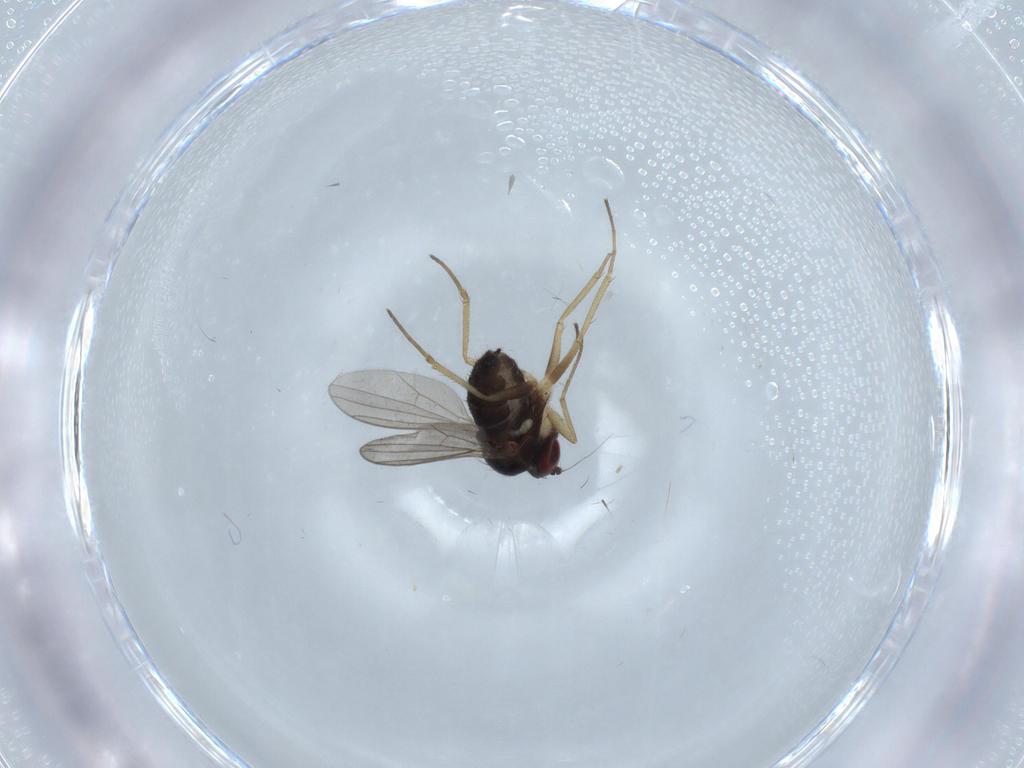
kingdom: Animalia
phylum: Arthropoda
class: Insecta
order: Diptera
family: Dolichopodidae
